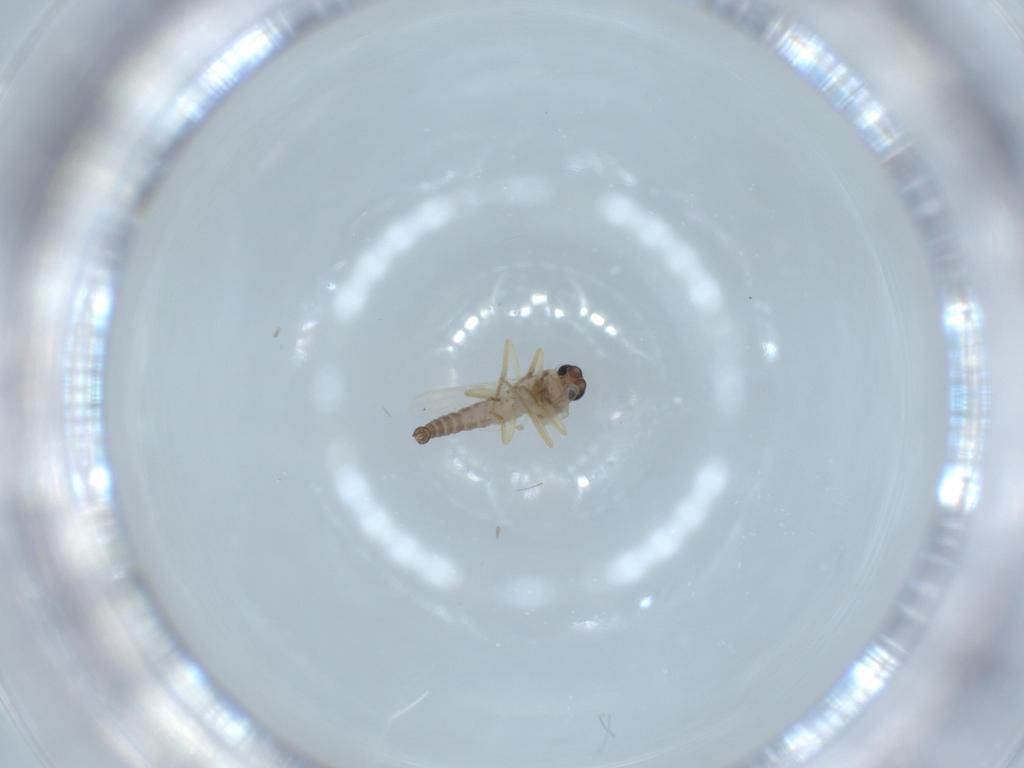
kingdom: Animalia
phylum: Arthropoda
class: Insecta
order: Diptera
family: Ceratopogonidae
